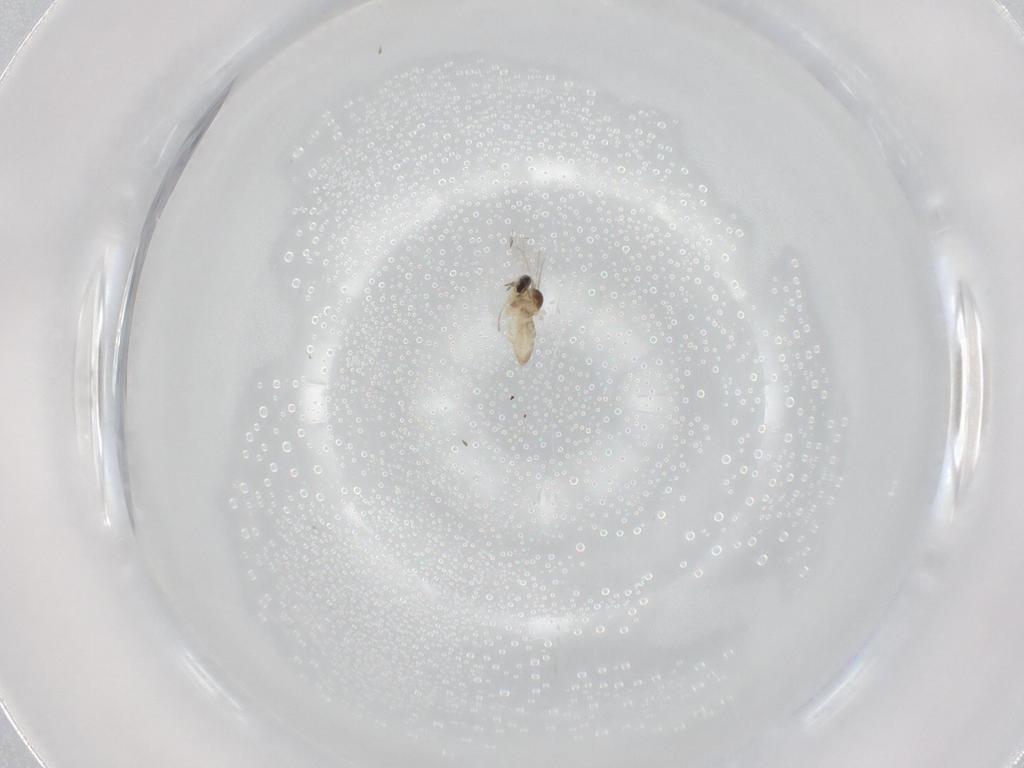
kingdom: Animalia
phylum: Arthropoda
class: Insecta
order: Diptera
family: Cecidomyiidae
